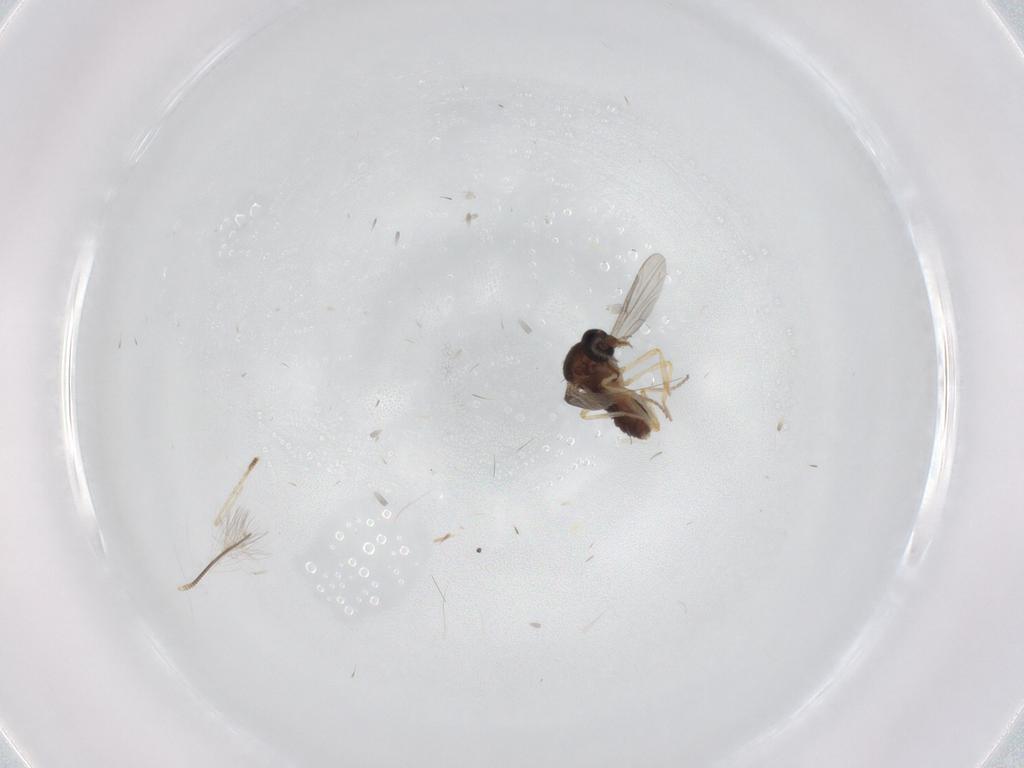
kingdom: Animalia
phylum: Arthropoda
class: Insecta
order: Diptera
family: Ceratopogonidae
